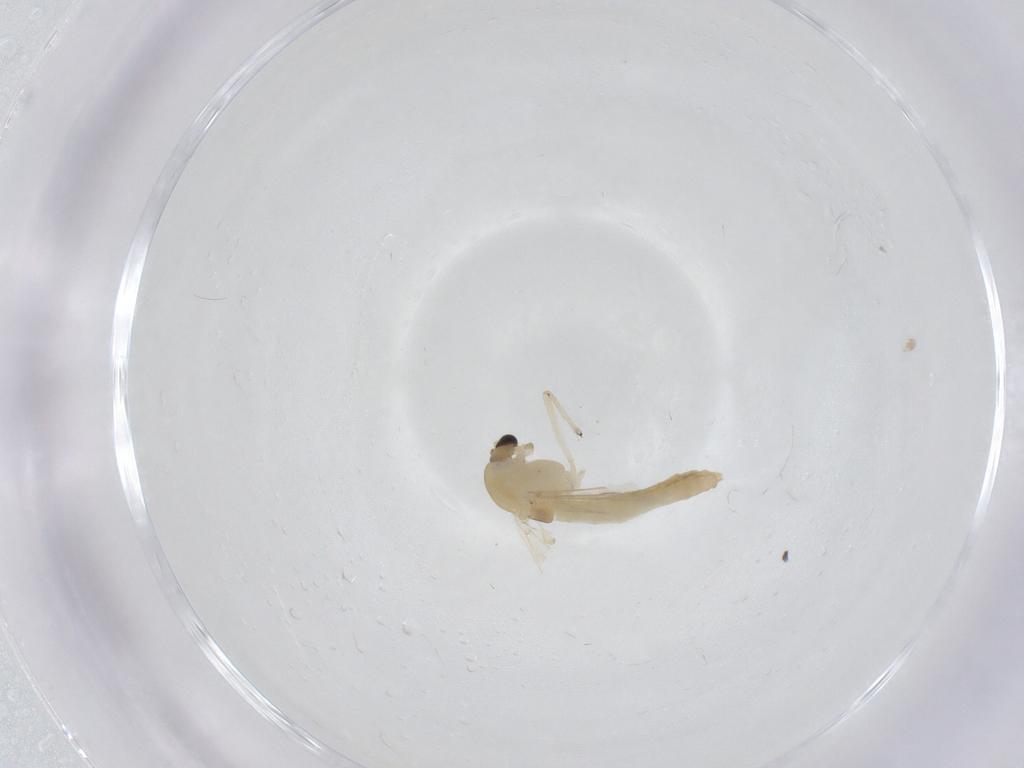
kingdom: Animalia
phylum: Arthropoda
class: Insecta
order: Diptera
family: Chironomidae
